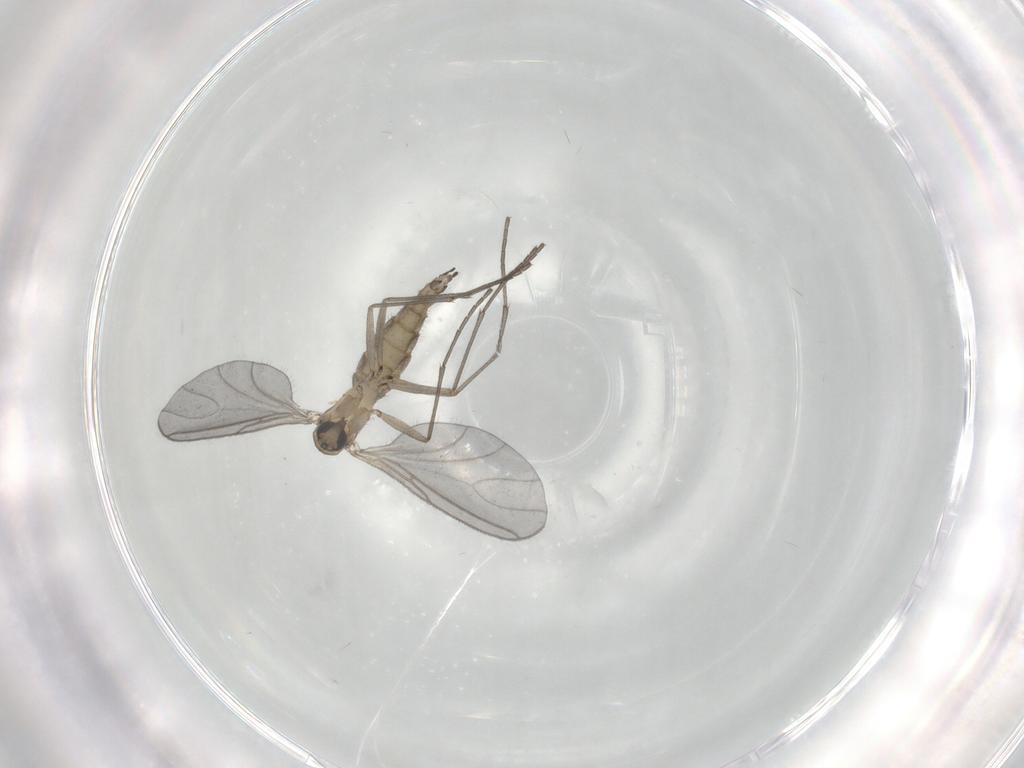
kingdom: Animalia
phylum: Arthropoda
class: Insecta
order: Diptera
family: Sciaridae
